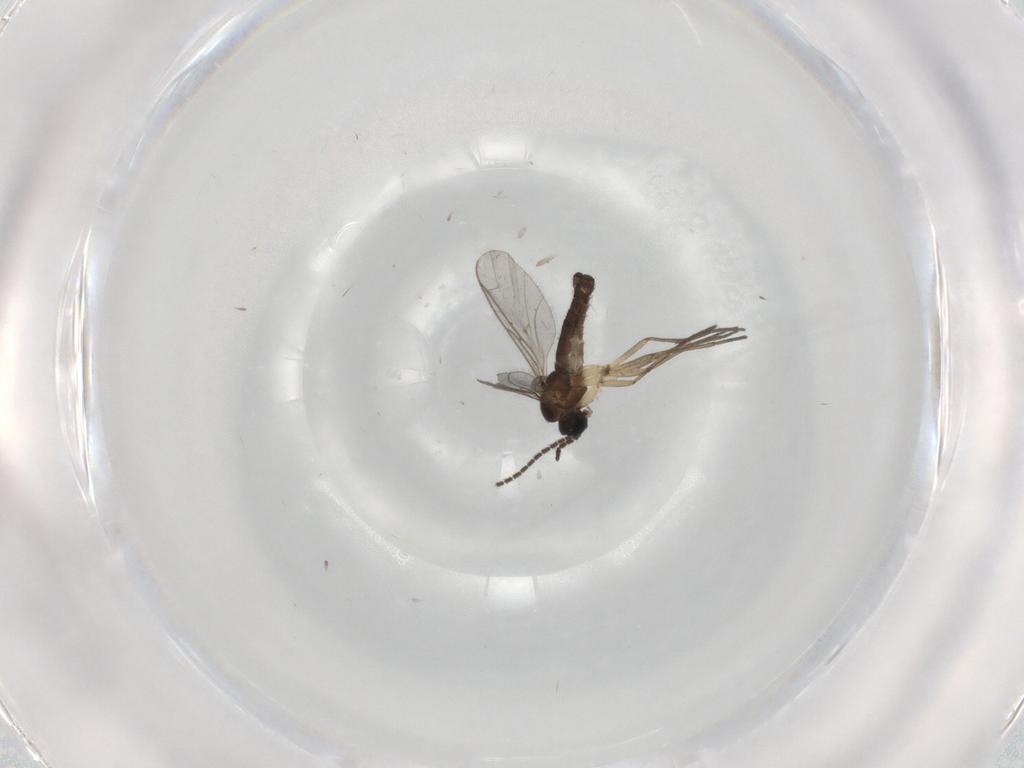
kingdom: Animalia
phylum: Arthropoda
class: Insecta
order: Diptera
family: Sciaridae
